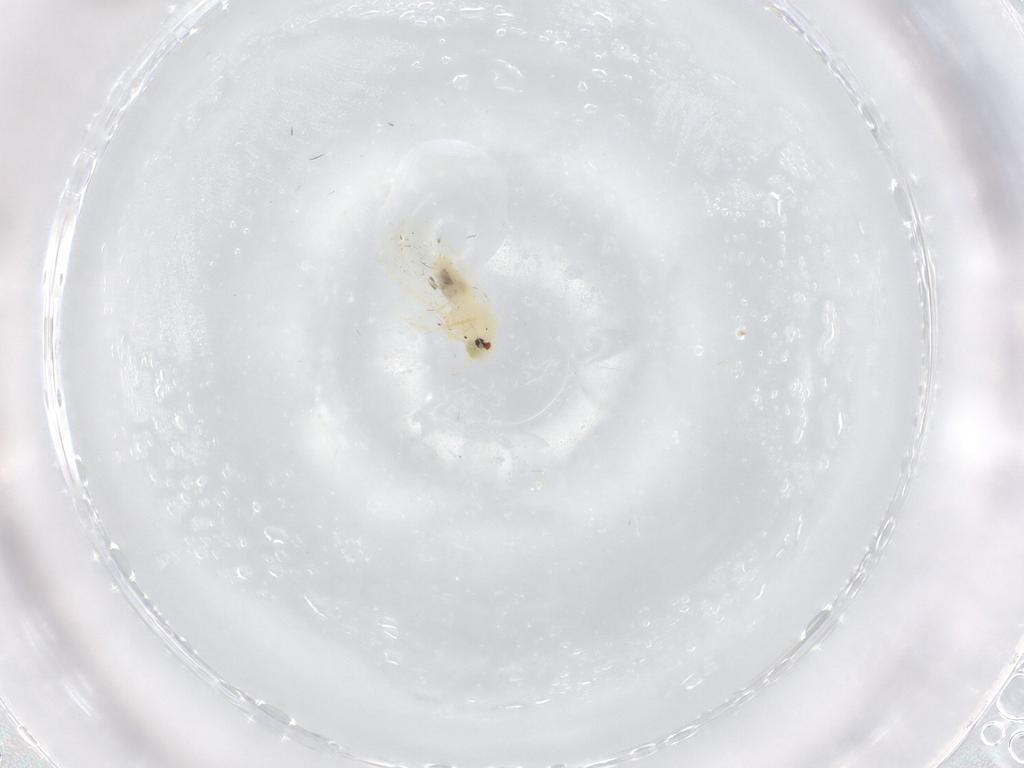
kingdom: Animalia
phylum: Arthropoda
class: Insecta
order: Hemiptera
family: Aleyrodidae
